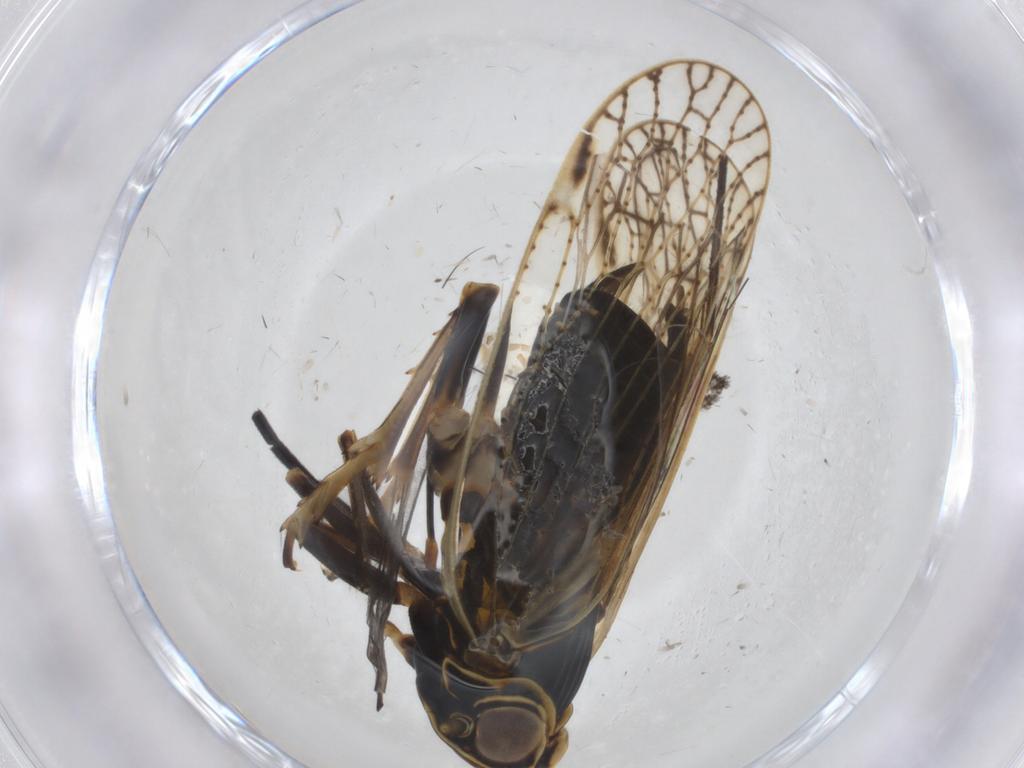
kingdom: Animalia
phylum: Arthropoda
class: Insecta
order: Hemiptera
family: Cixiidae
